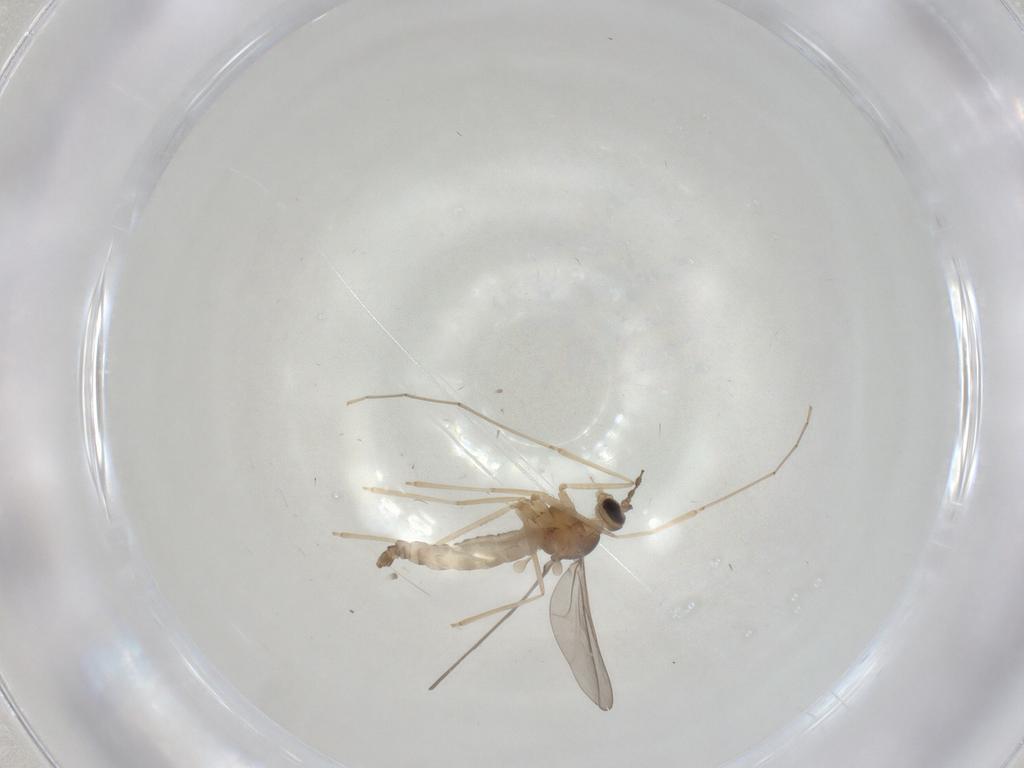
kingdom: Animalia
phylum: Arthropoda
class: Insecta
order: Diptera
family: Cecidomyiidae
